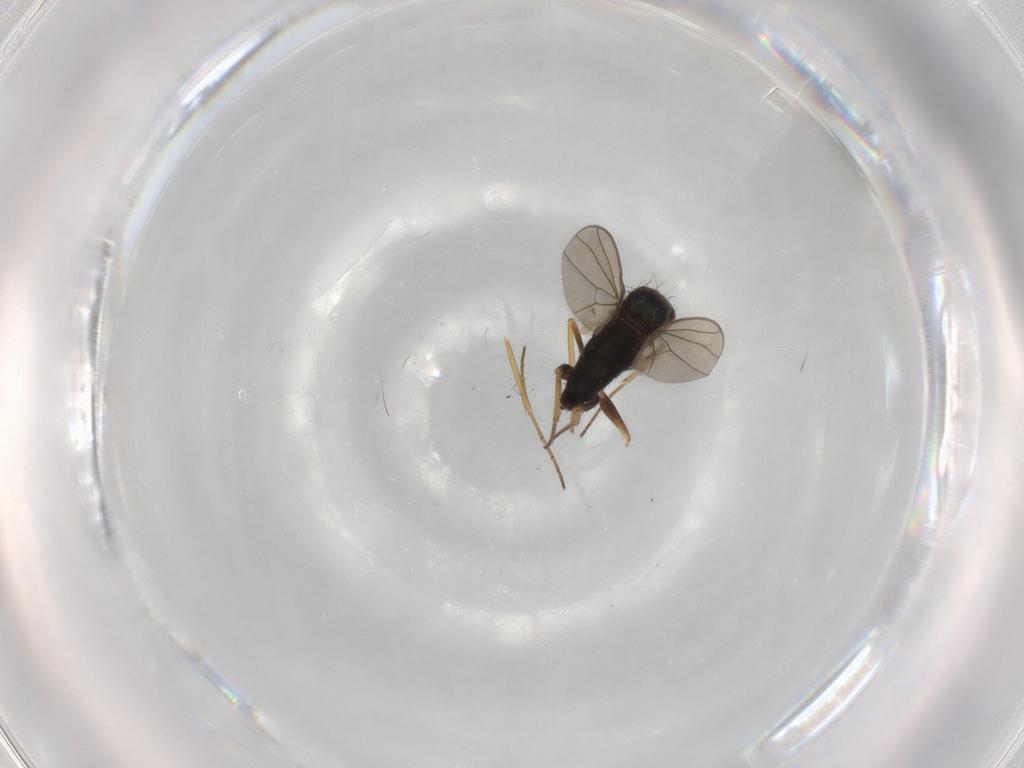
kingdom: Animalia
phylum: Arthropoda
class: Insecta
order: Diptera
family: Dolichopodidae
